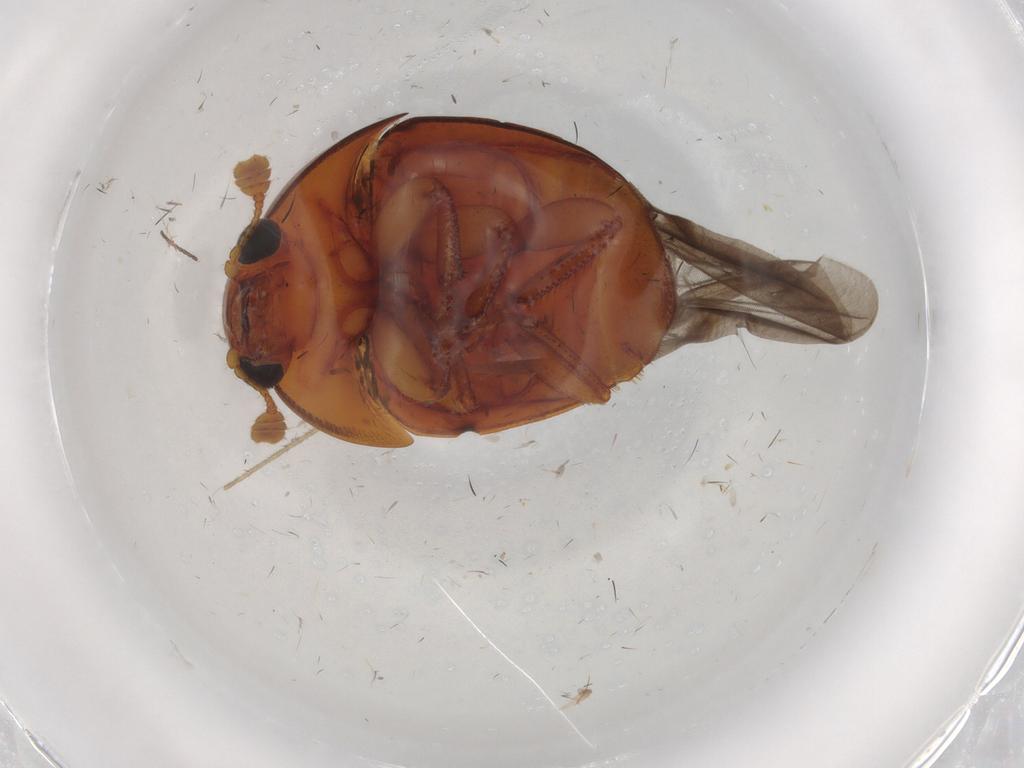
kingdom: Animalia
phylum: Arthropoda
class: Insecta
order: Coleoptera
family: Nitidulidae
